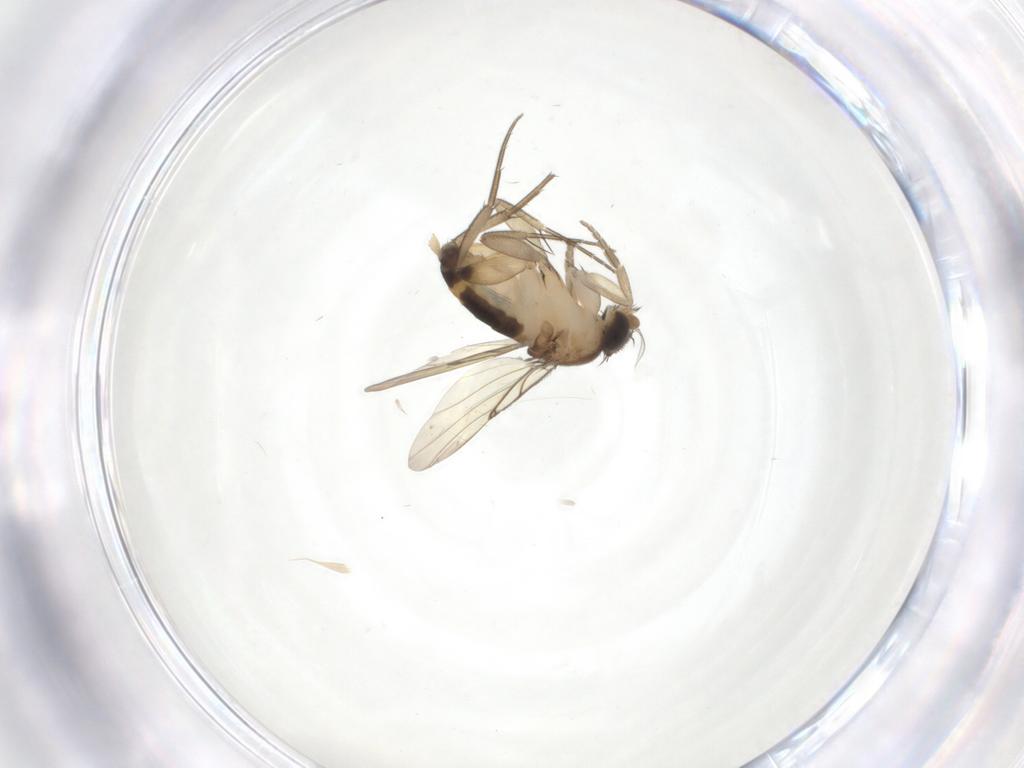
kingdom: Animalia
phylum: Arthropoda
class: Insecta
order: Diptera
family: Phoridae
